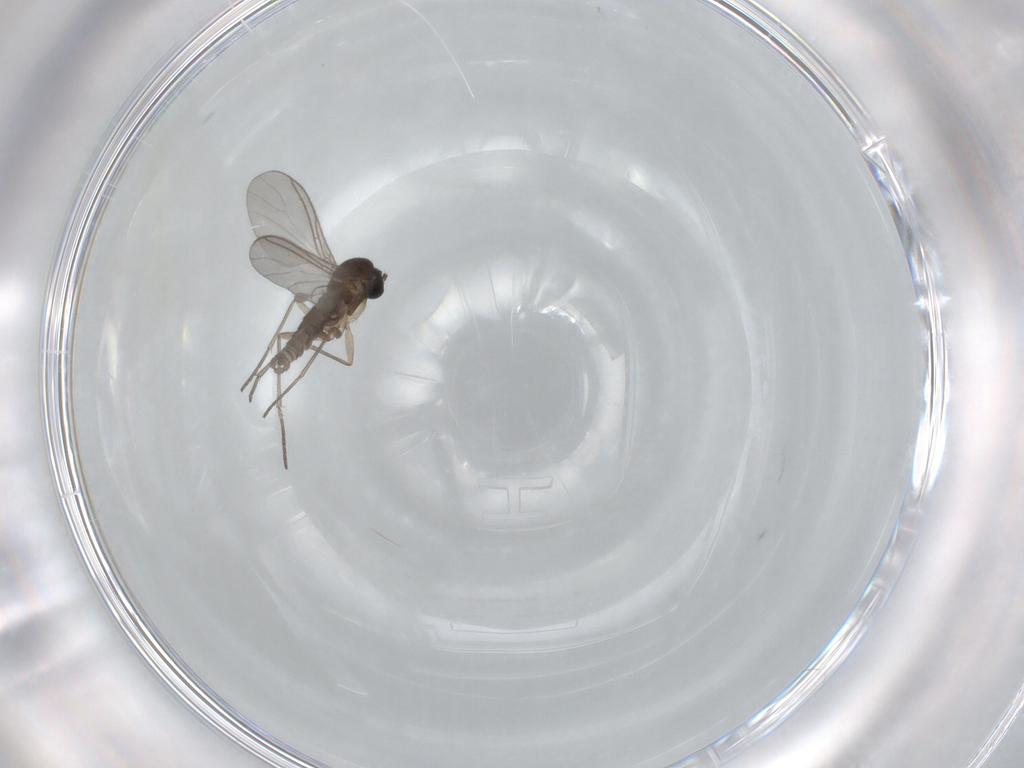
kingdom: Animalia
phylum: Arthropoda
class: Insecta
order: Diptera
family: Sciaridae
